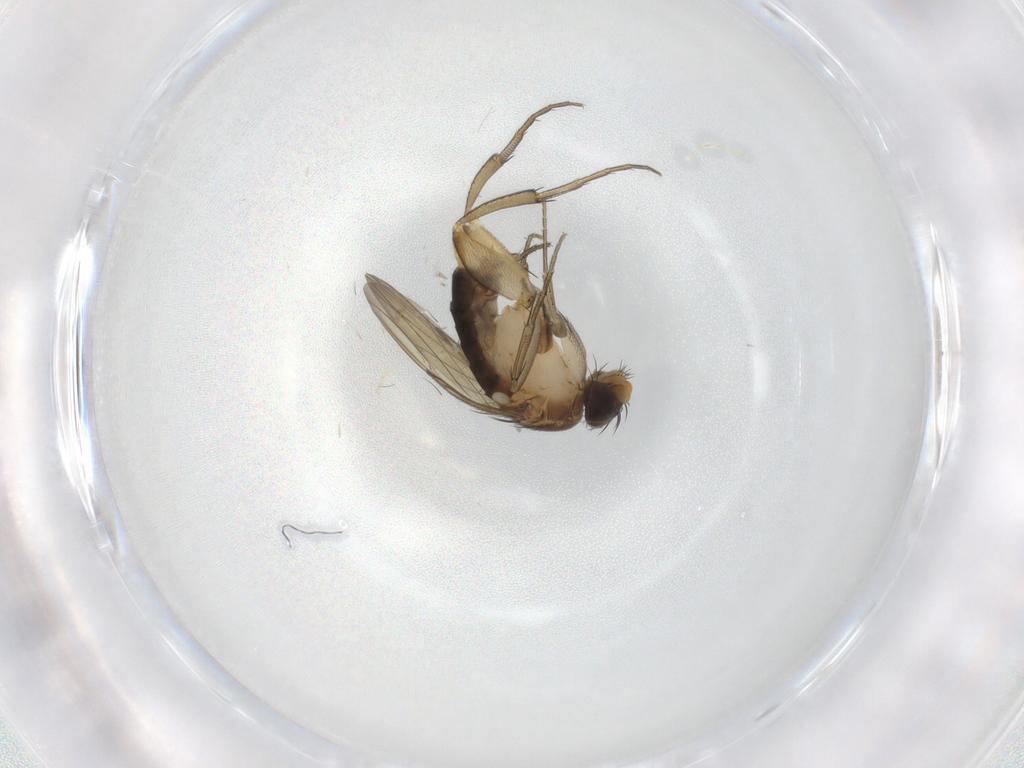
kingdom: Animalia
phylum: Arthropoda
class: Insecta
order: Diptera
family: Phoridae
